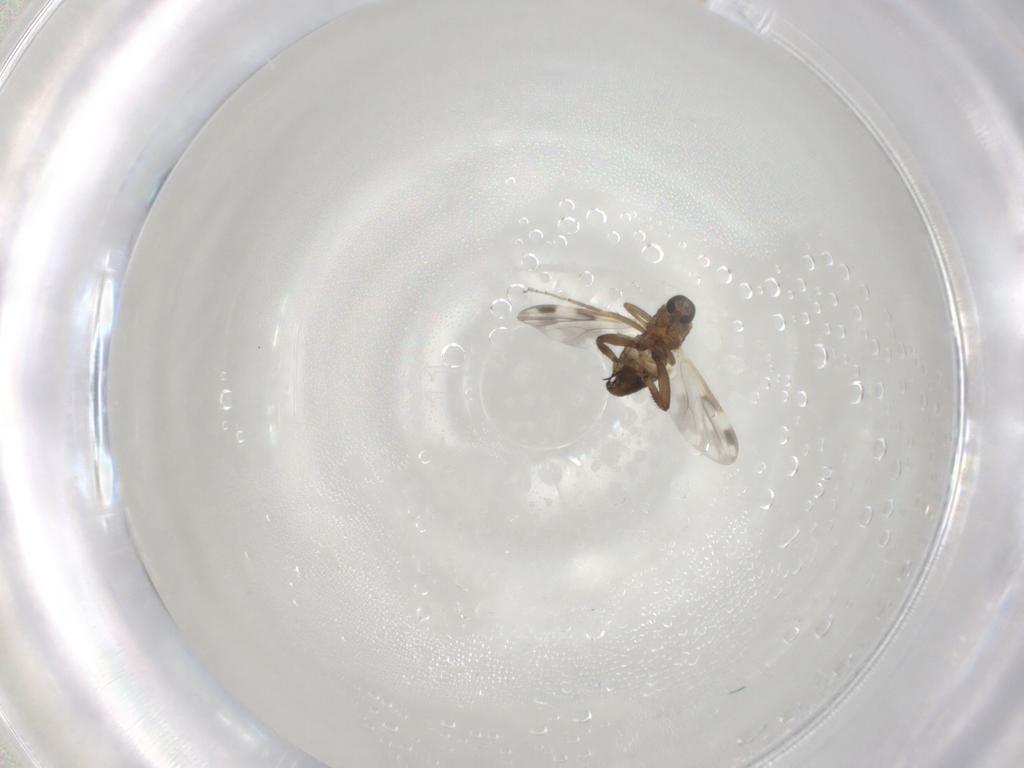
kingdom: Animalia
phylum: Arthropoda
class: Insecta
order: Diptera
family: Ceratopogonidae
